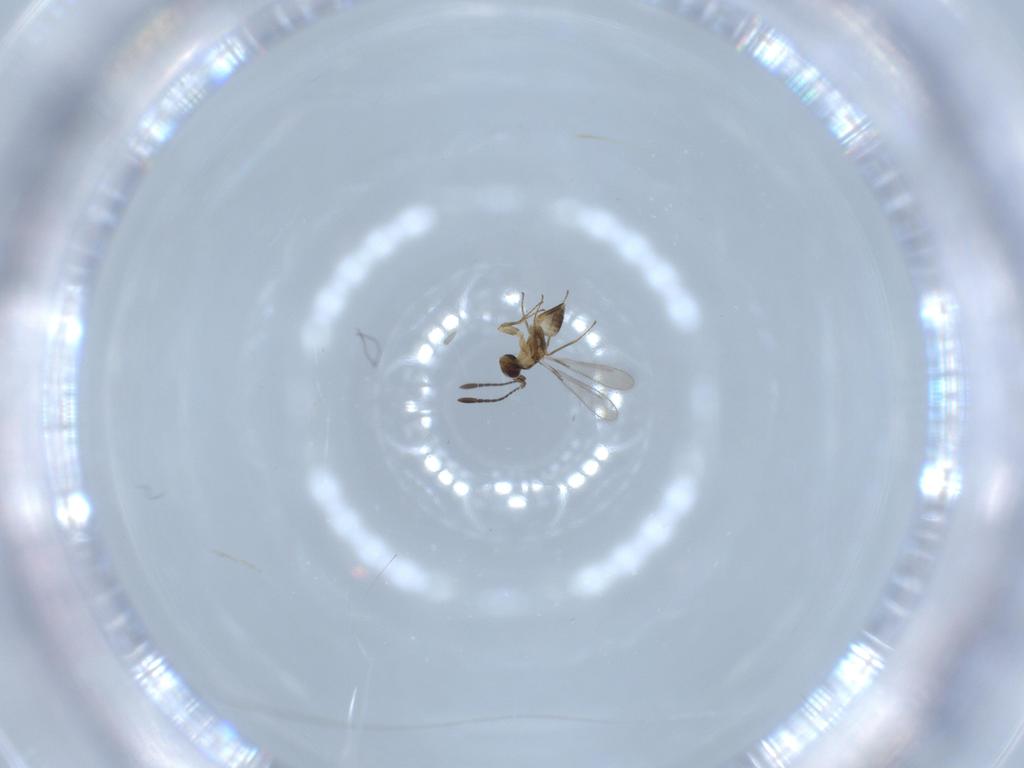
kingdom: Animalia
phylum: Arthropoda
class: Insecta
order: Hymenoptera
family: Mymaridae
